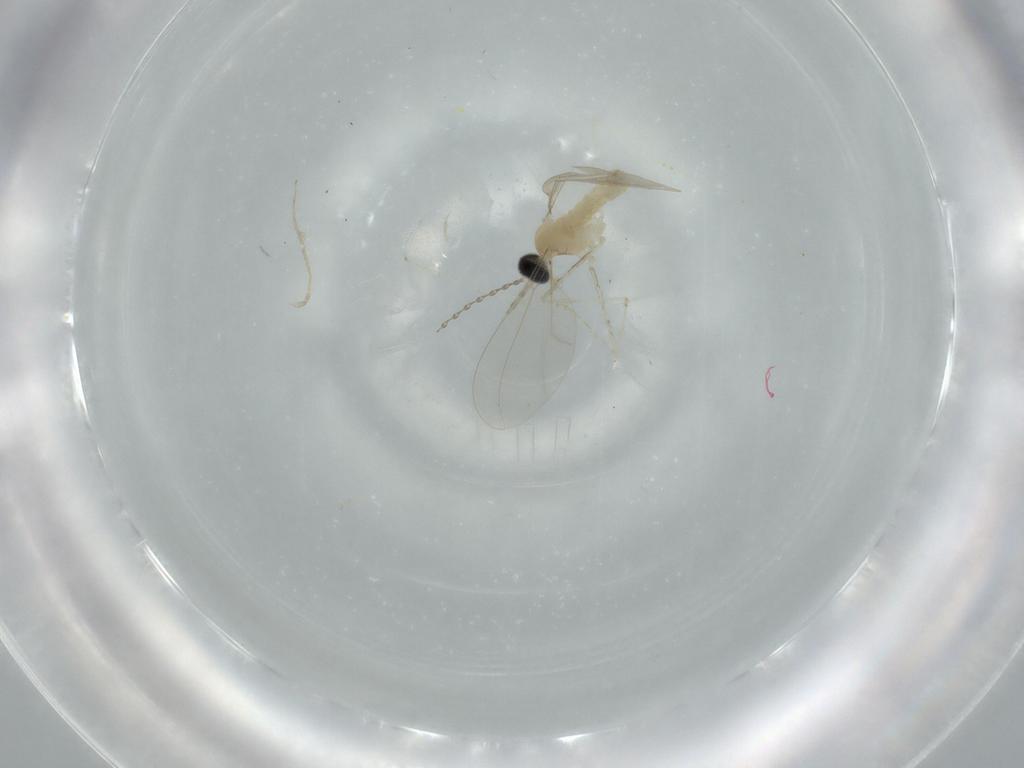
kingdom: Animalia
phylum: Arthropoda
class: Insecta
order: Diptera
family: Cecidomyiidae
